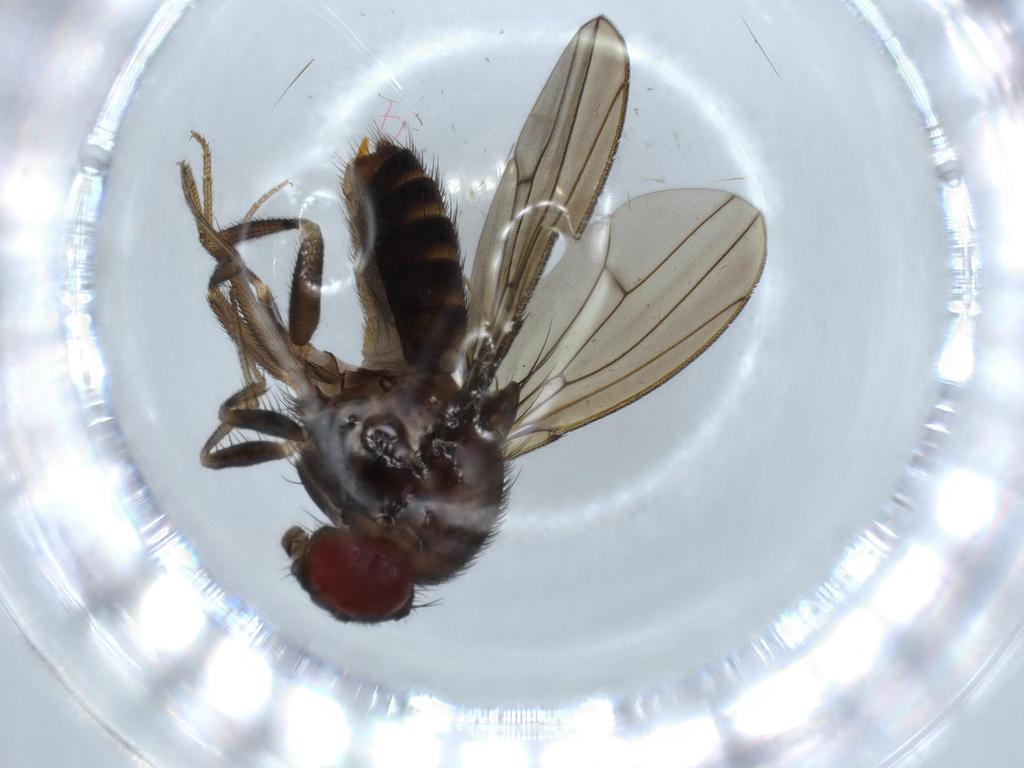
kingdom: Animalia
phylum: Arthropoda
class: Insecta
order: Diptera
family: Drosophilidae
